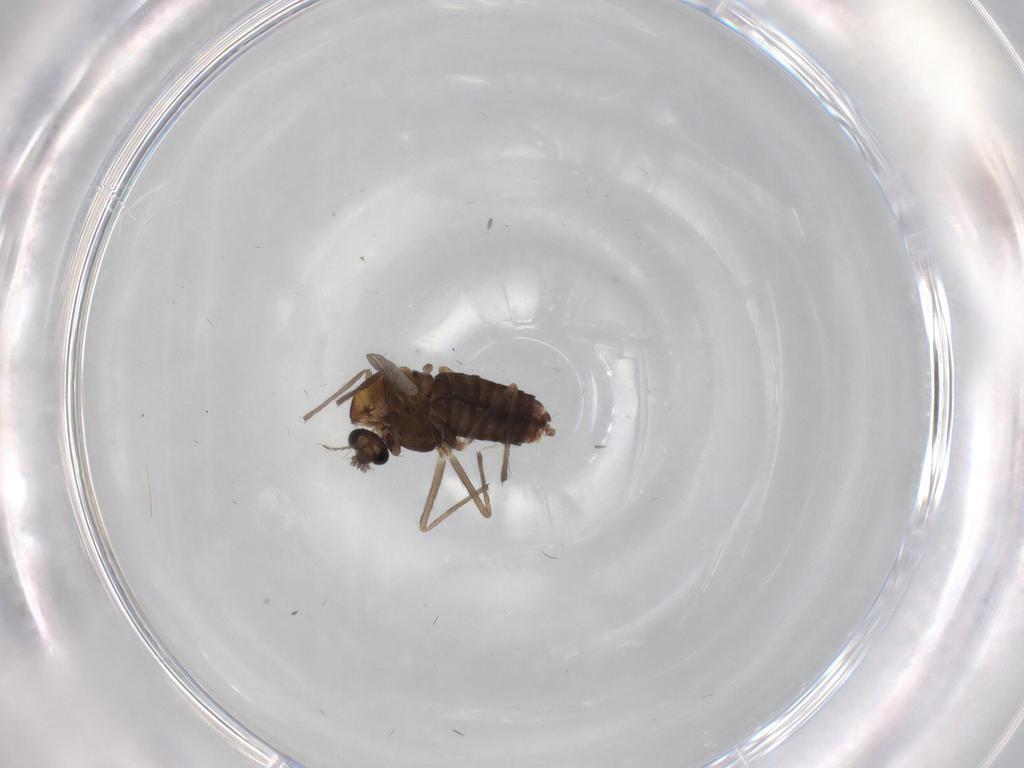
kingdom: Animalia
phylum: Arthropoda
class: Insecta
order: Diptera
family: Chironomidae
